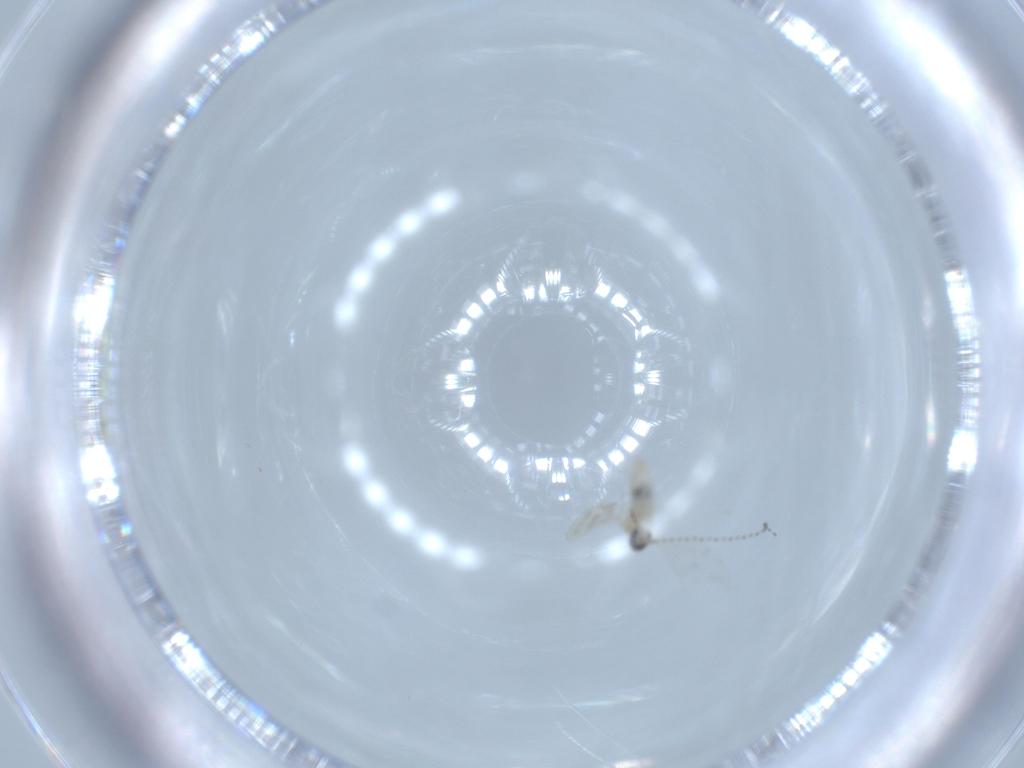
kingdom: Animalia
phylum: Arthropoda
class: Insecta
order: Diptera
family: Cecidomyiidae
